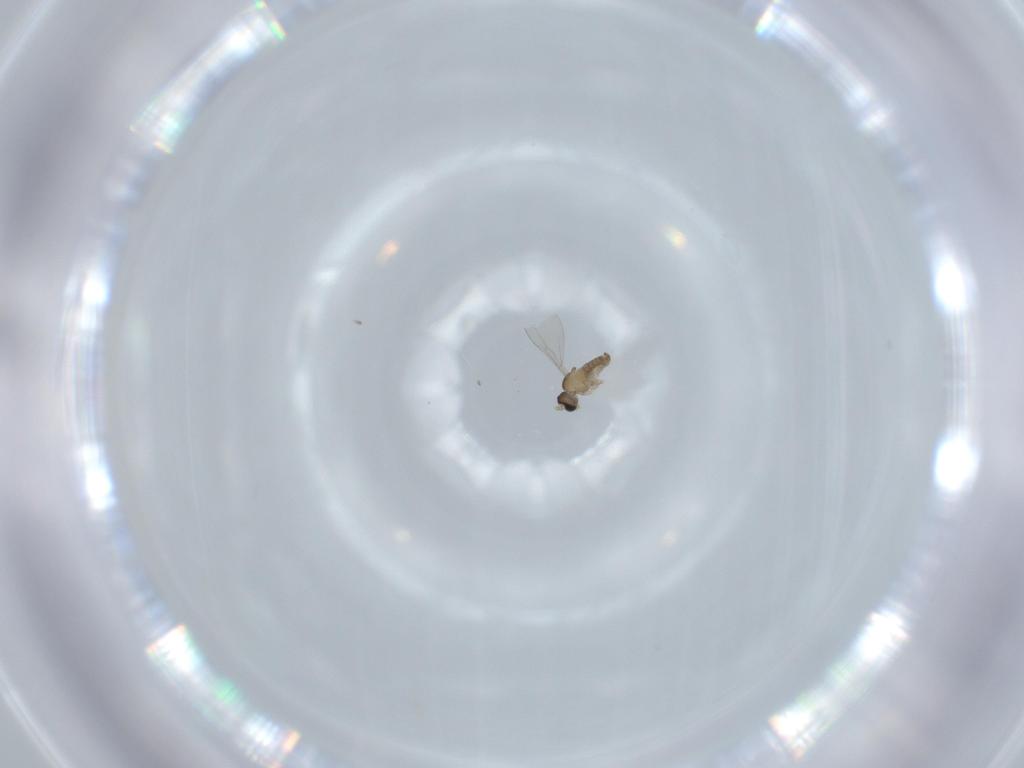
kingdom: Animalia
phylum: Arthropoda
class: Insecta
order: Diptera
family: Cecidomyiidae
